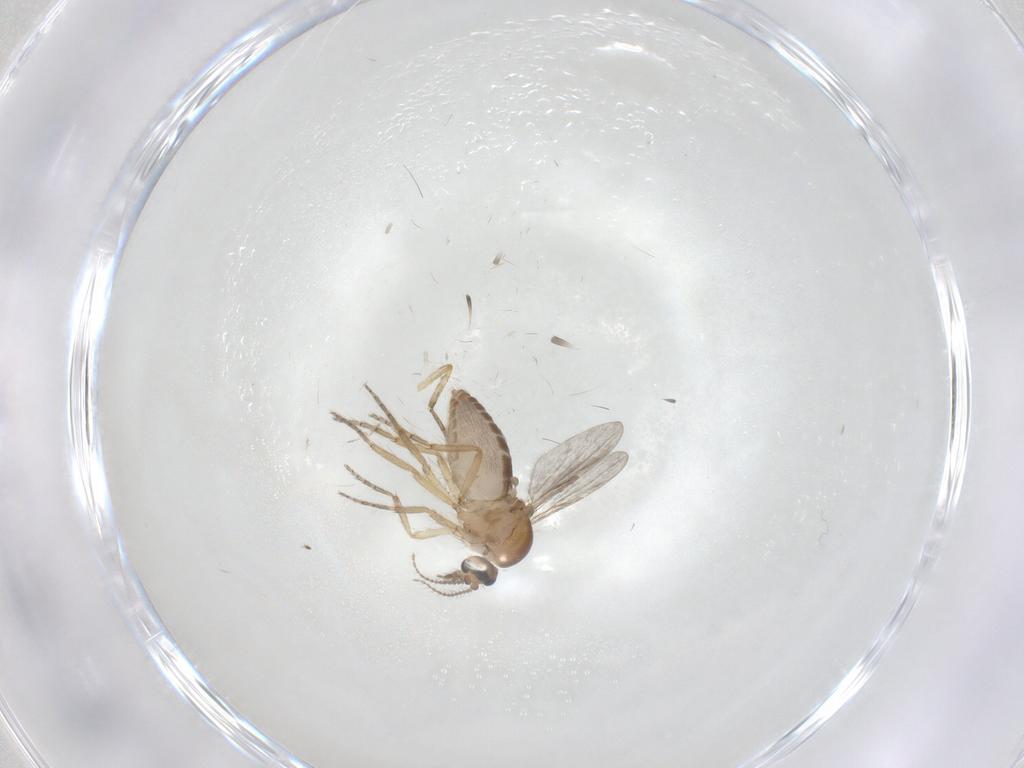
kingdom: Animalia
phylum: Arthropoda
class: Insecta
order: Diptera
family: Ceratopogonidae
